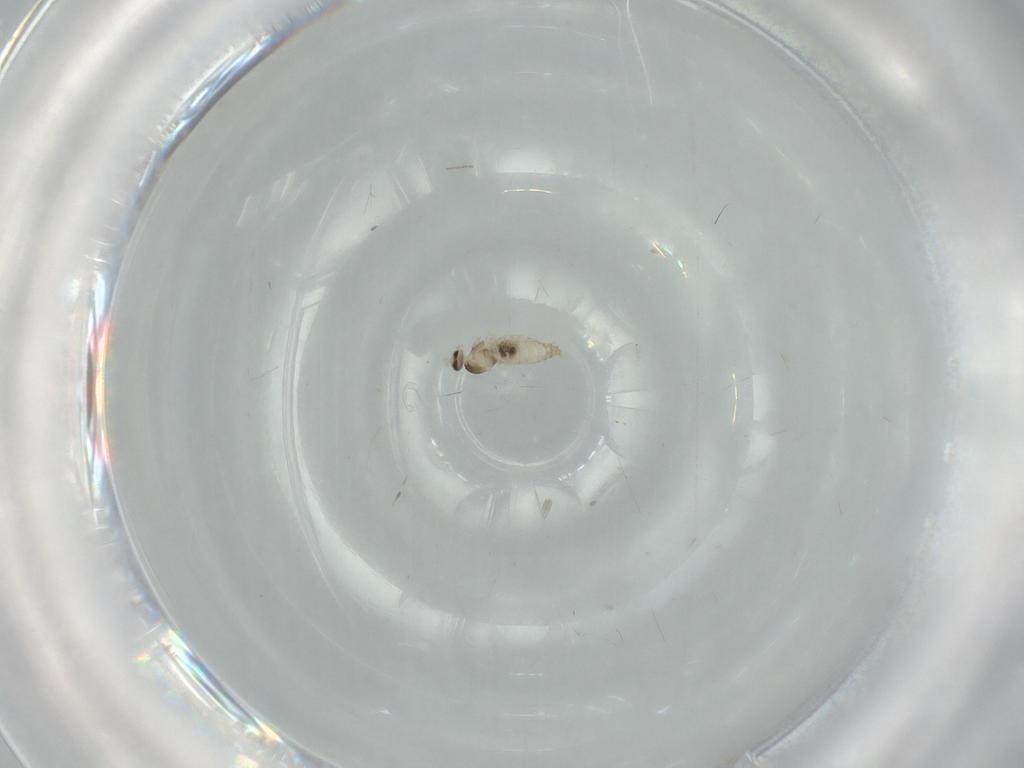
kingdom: Animalia
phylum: Arthropoda
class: Insecta
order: Diptera
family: Cecidomyiidae
